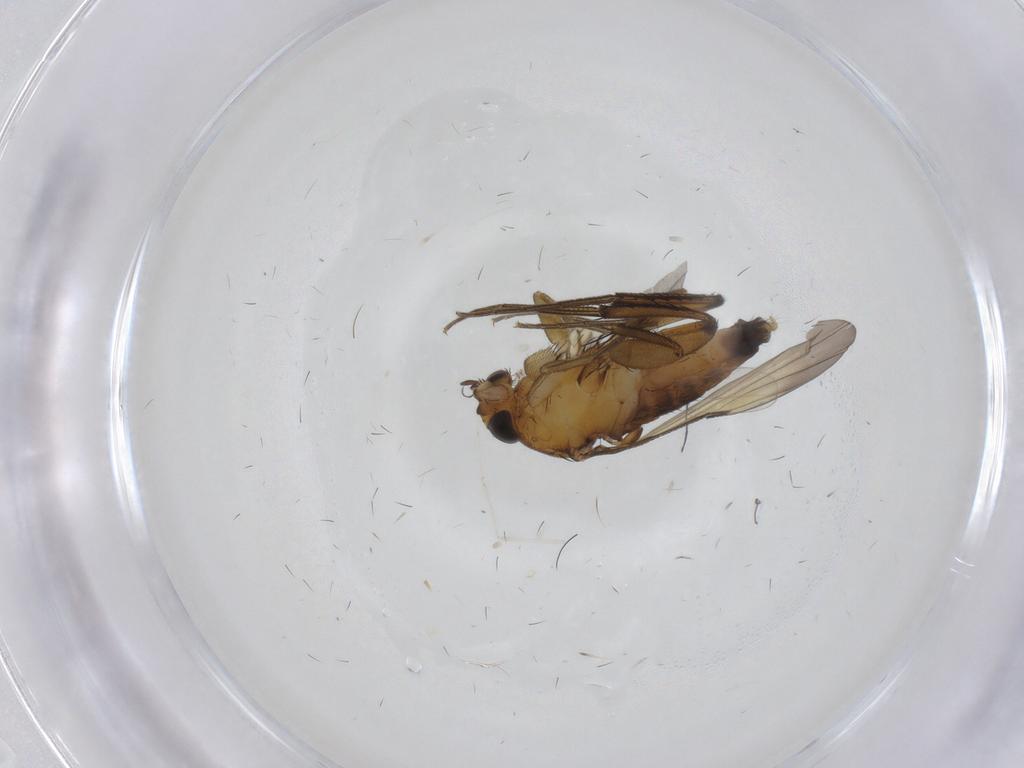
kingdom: Animalia
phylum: Arthropoda
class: Insecta
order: Diptera
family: Phoridae
